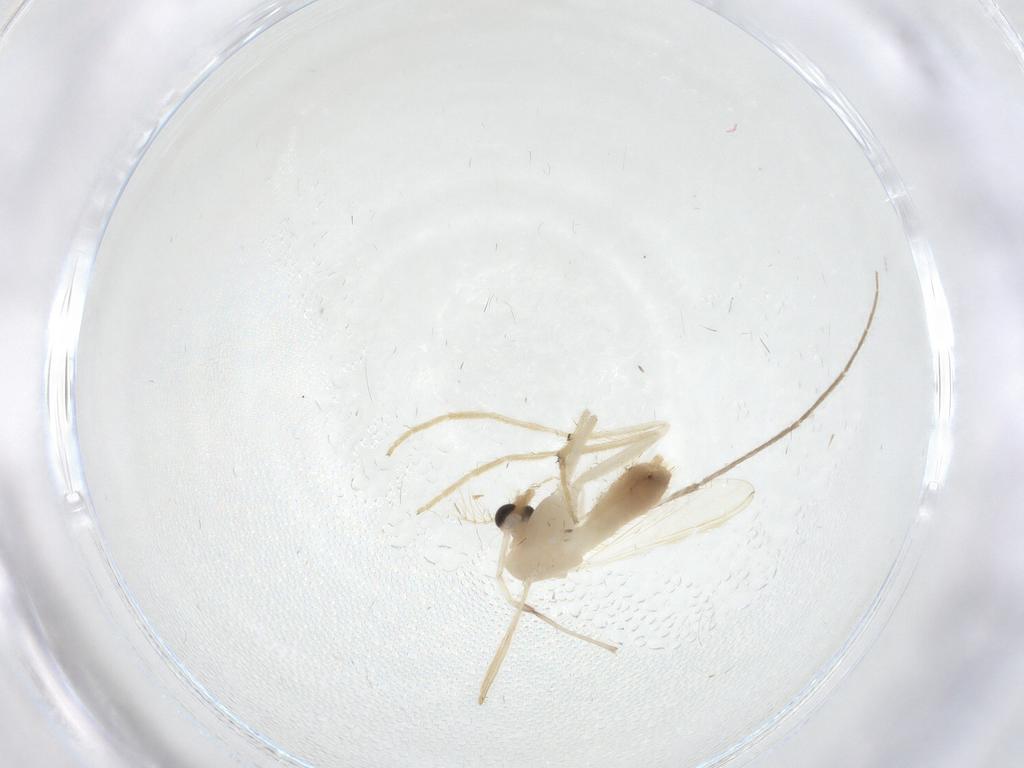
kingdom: Animalia
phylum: Arthropoda
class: Insecta
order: Diptera
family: Chironomidae
